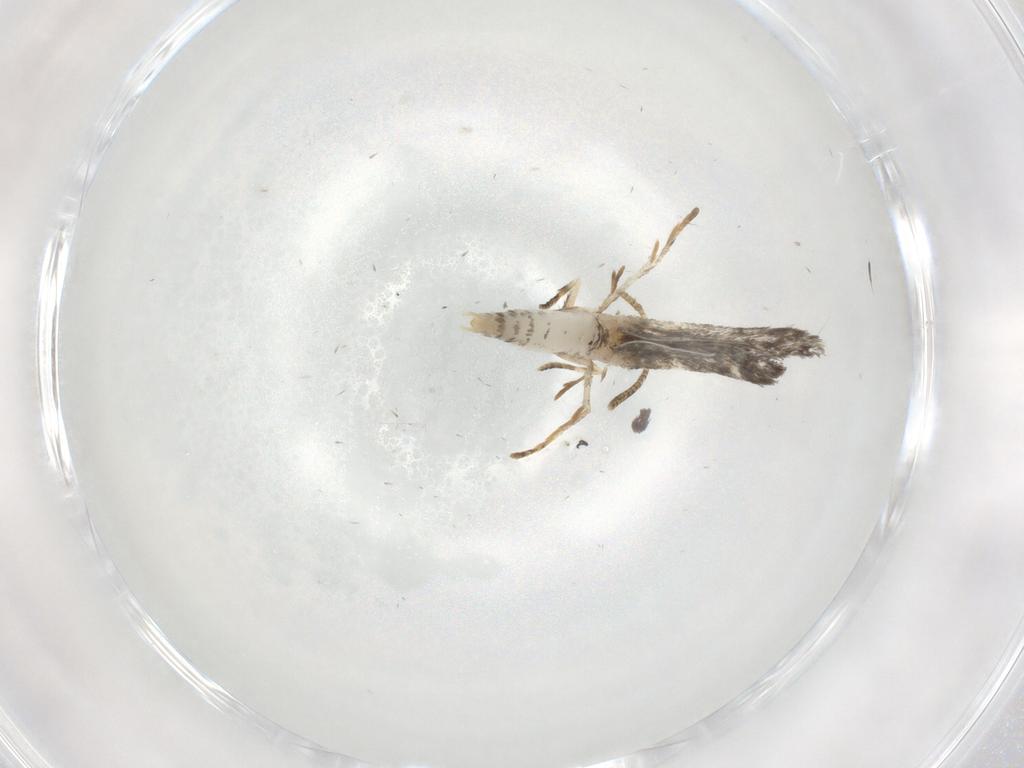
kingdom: Animalia
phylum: Arthropoda
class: Insecta
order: Lepidoptera
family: Tineidae
